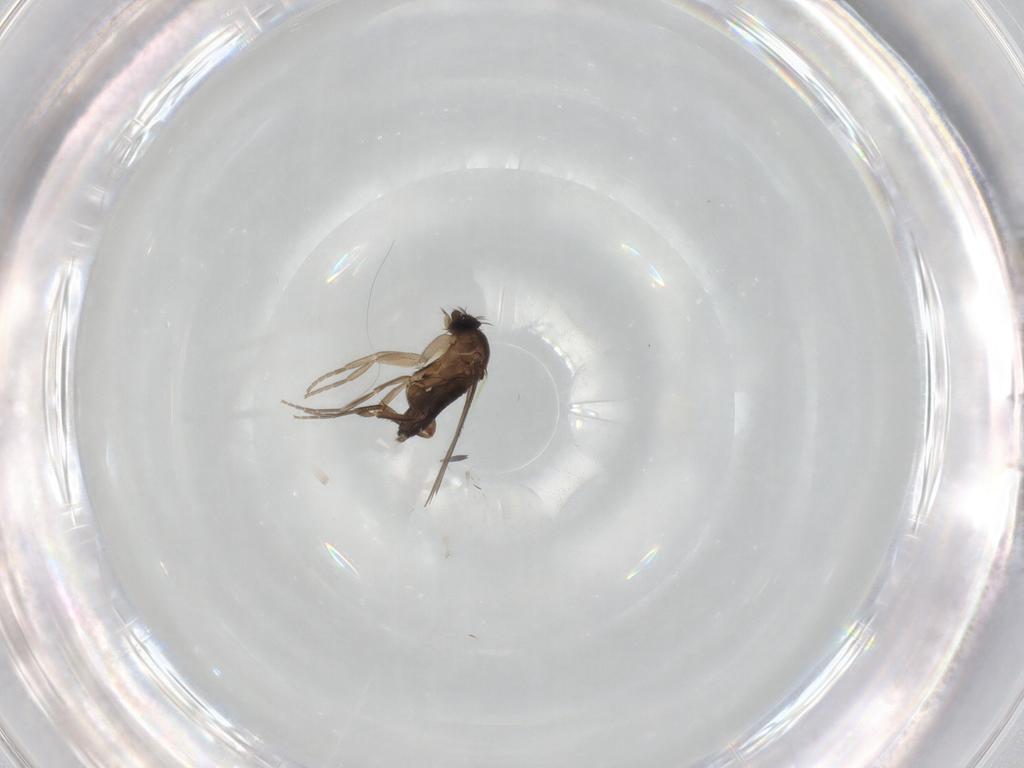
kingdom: Animalia
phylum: Arthropoda
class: Insecta
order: Diptera
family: Phoridae
